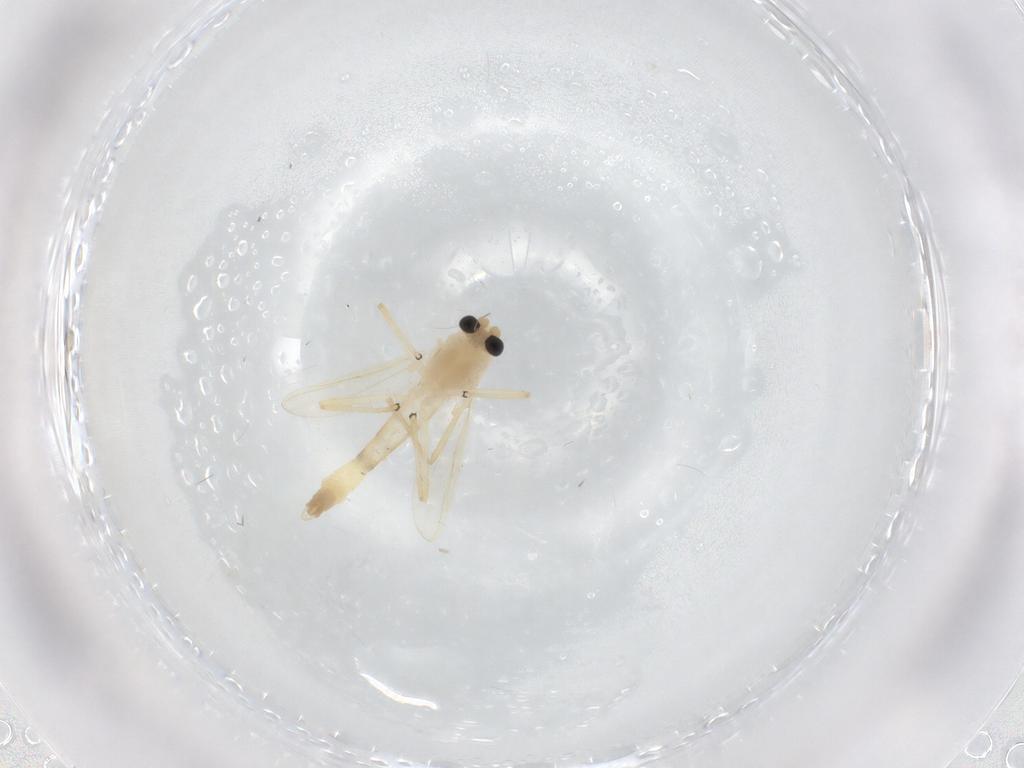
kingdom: Animalia
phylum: Arthropoda
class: Insecta
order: Diptera
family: Chironomidae
